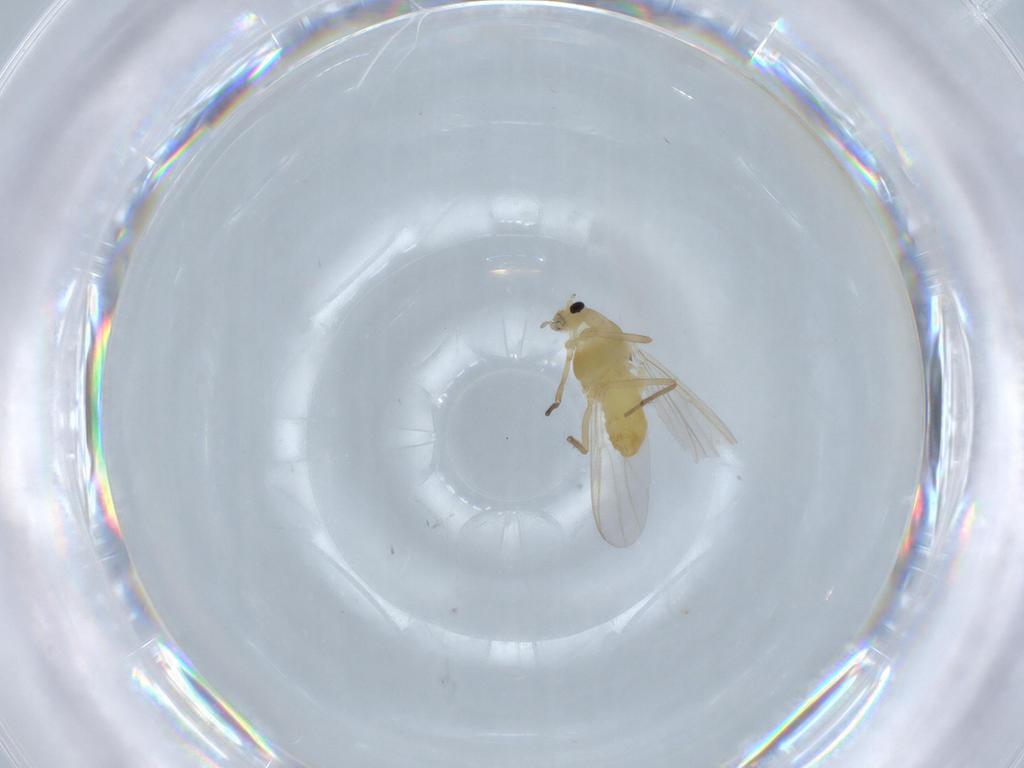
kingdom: Animalia
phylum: Arthropoda
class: Insecta
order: Diptera
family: Chironomidae
